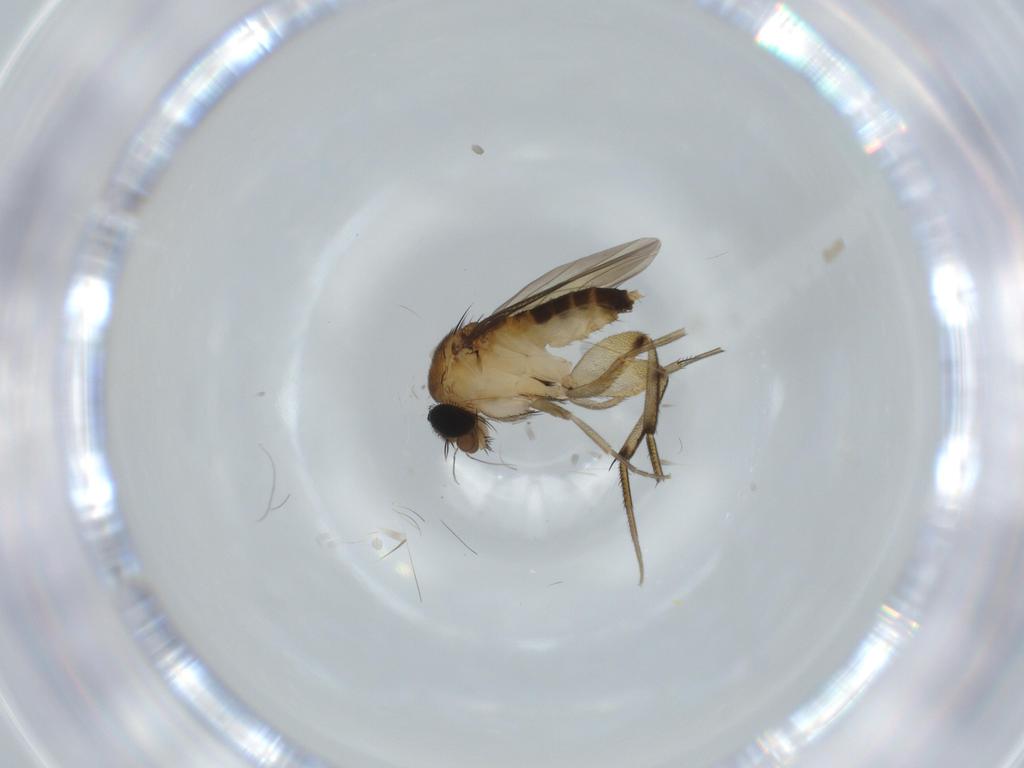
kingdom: Animalia
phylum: Arthropoda
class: Insecta
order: Diptera
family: Phoridae
